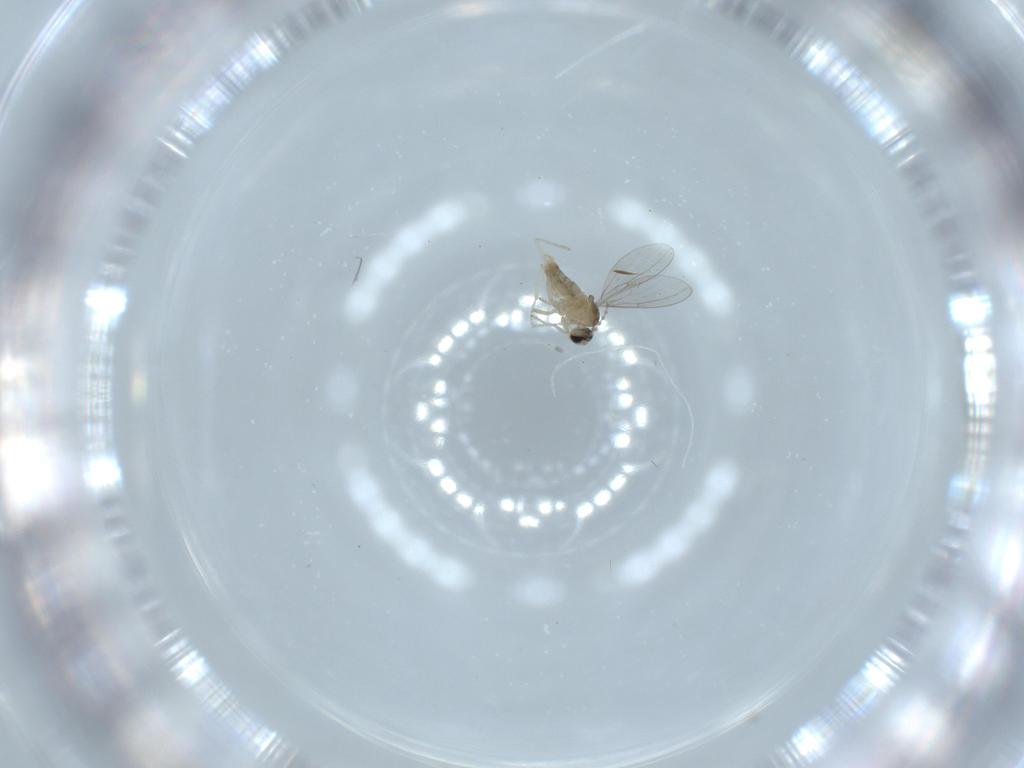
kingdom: Animalia
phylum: Arthropoda
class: Insecta
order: Diptera
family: Cecidomyiidae
